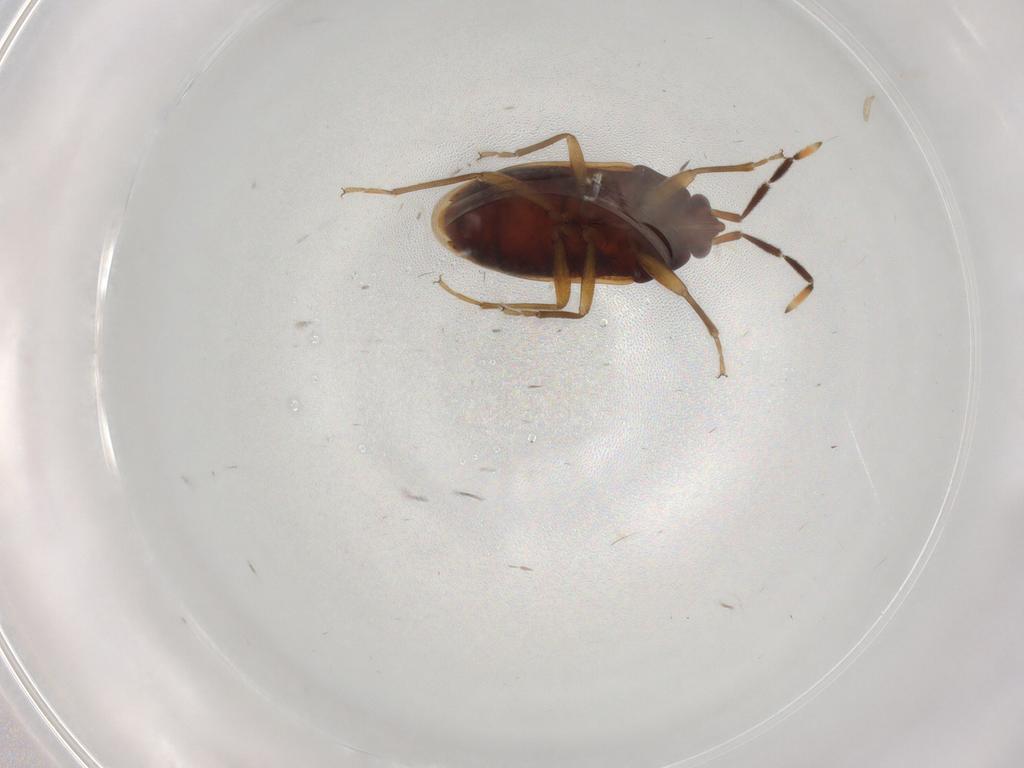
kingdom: Animalia
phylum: Arthropoda
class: Insecta
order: Hemiptera
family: Rhyparochromidae
